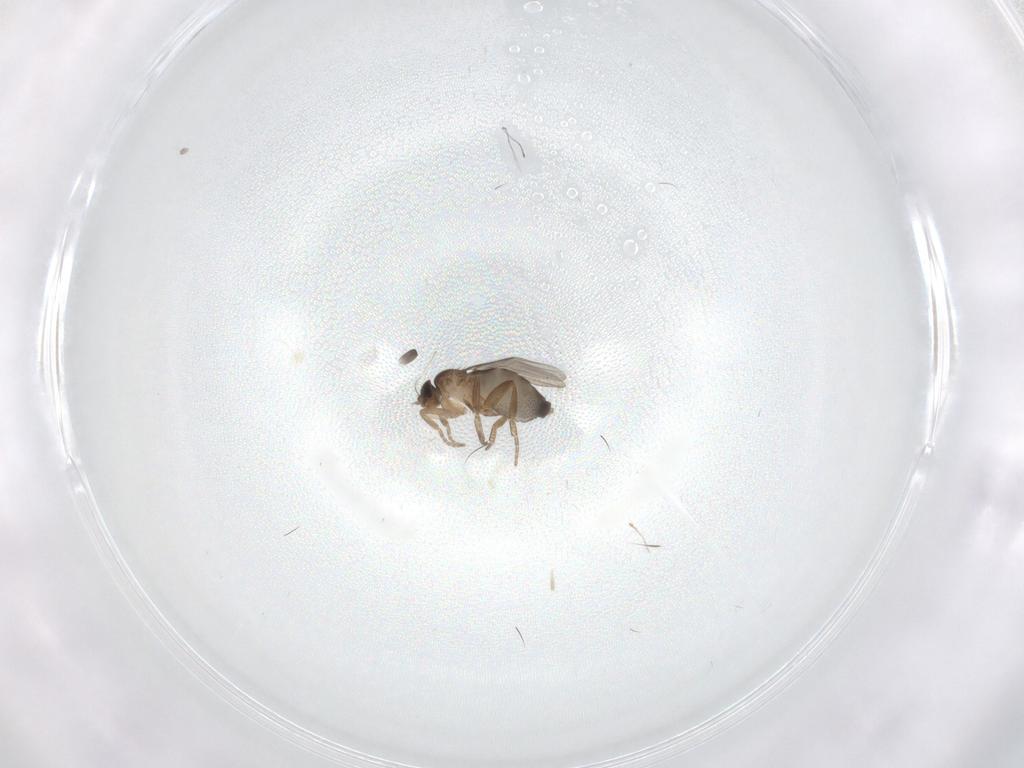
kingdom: Animalia
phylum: Arthropoda
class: Insecta
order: Diptera
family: Sciaridae
